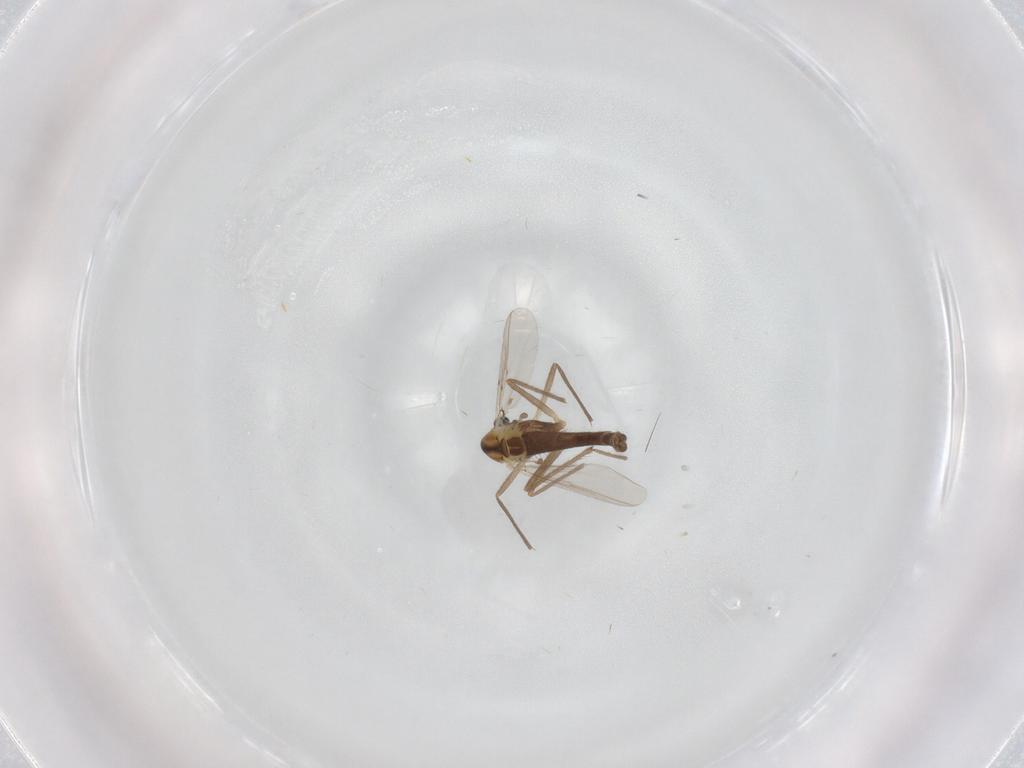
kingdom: Animalia
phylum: Arthropoda
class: Insecta
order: Diptera
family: Chironomidae
